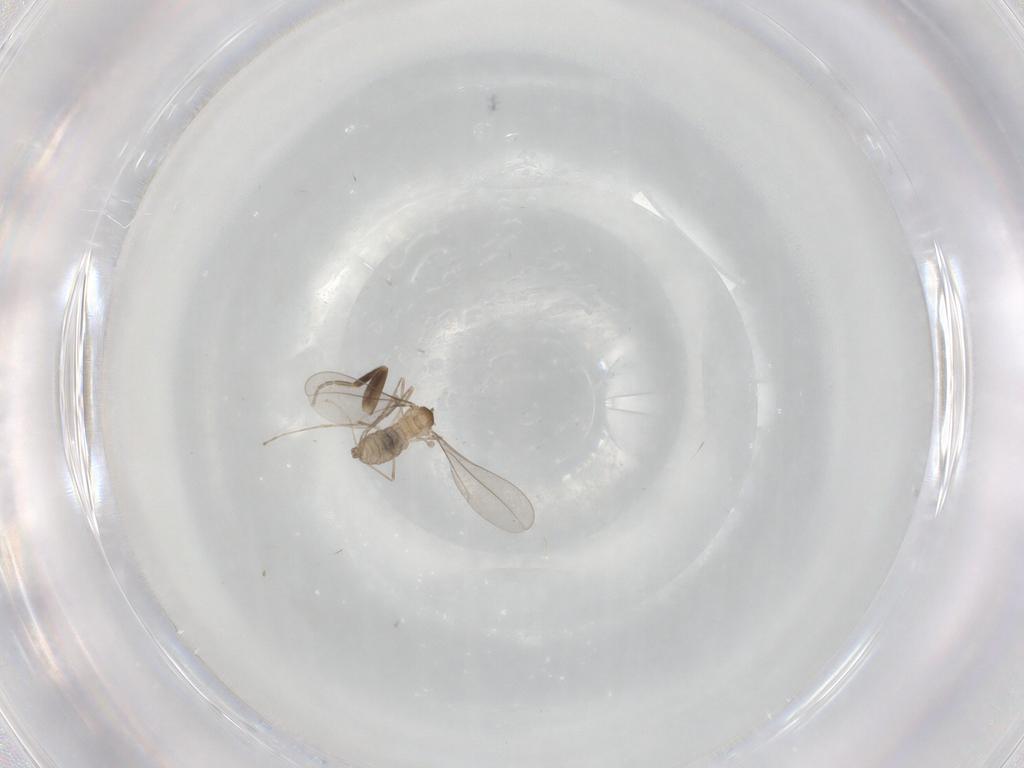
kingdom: Animalia
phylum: Arthropoda
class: Insecta
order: Diptera
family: Cecidomyiidae
